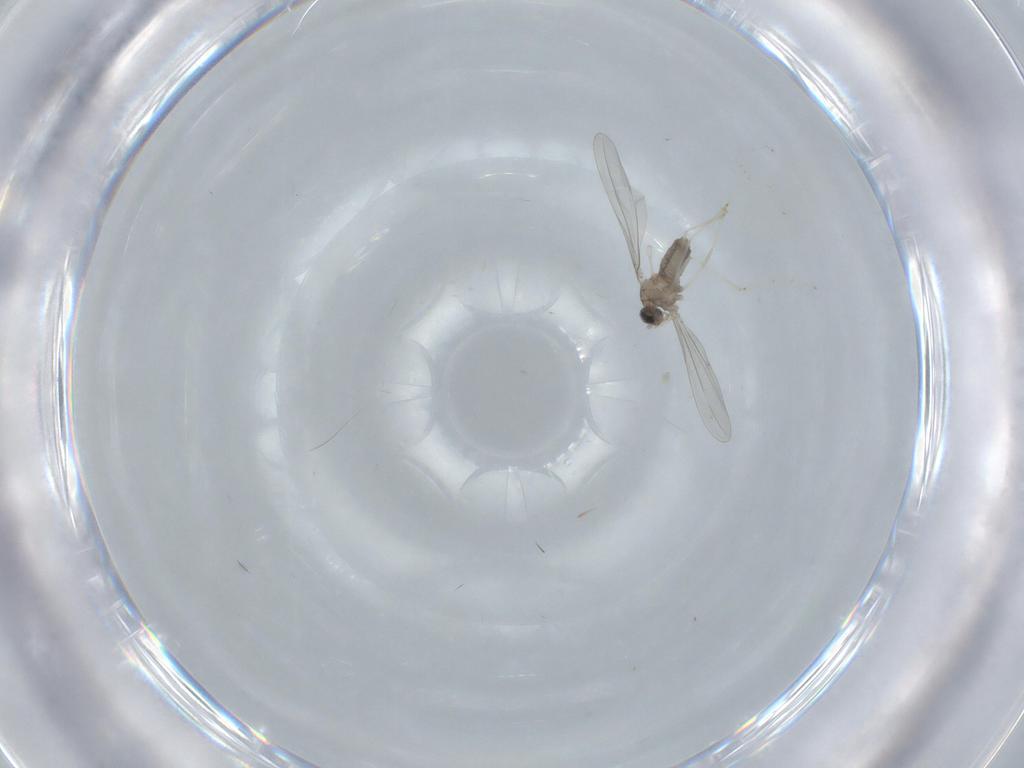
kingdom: Animalia
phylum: Arthropoda
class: Insecta
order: Diptera
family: Cecidomyiidae
